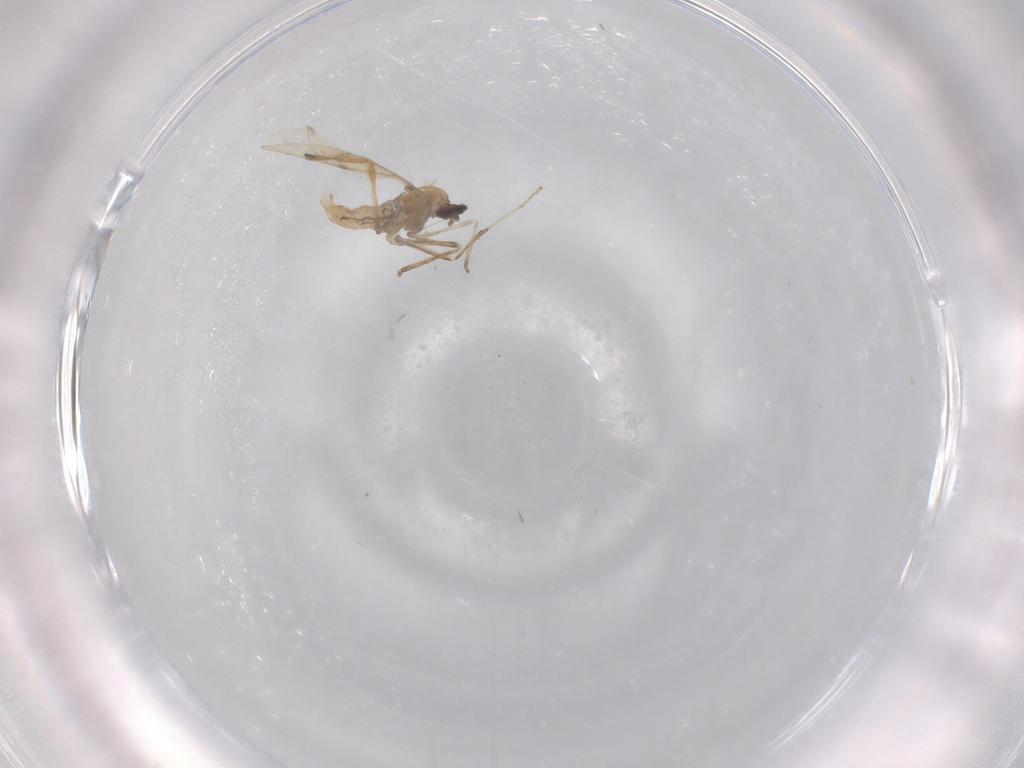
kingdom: Animalia
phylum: Arthropoda
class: Insecta
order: Diptera
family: Cecidomyiidae
